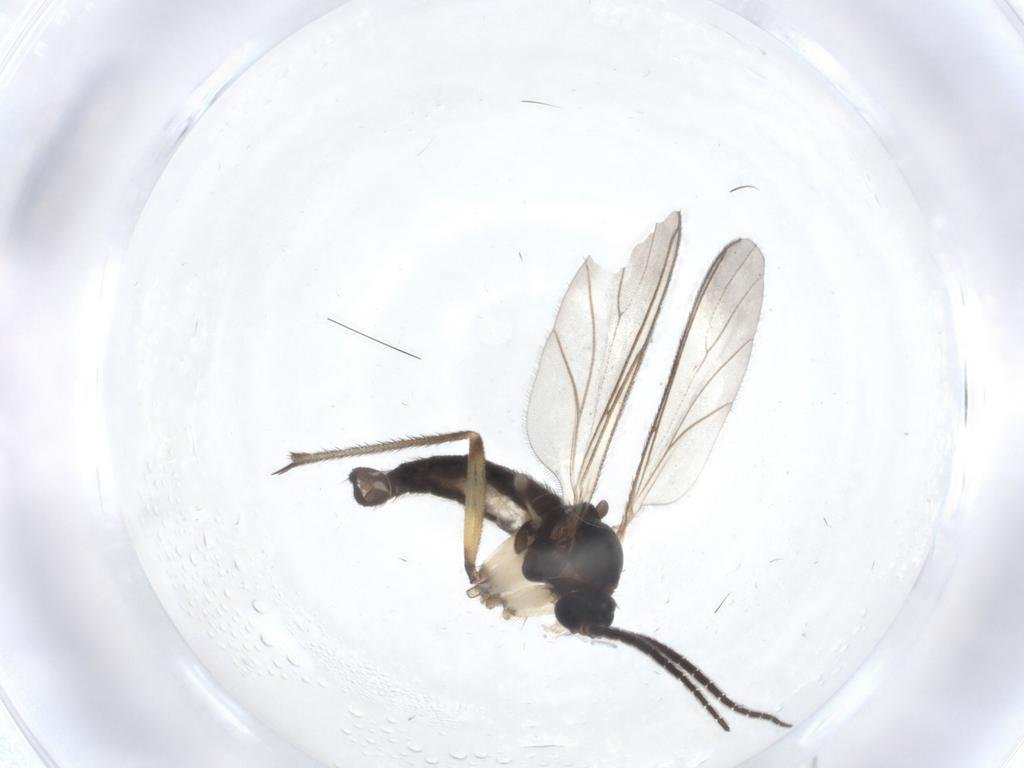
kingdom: Animalia
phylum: Arthropoda
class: Insecta
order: Diptera
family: Sciaridae
